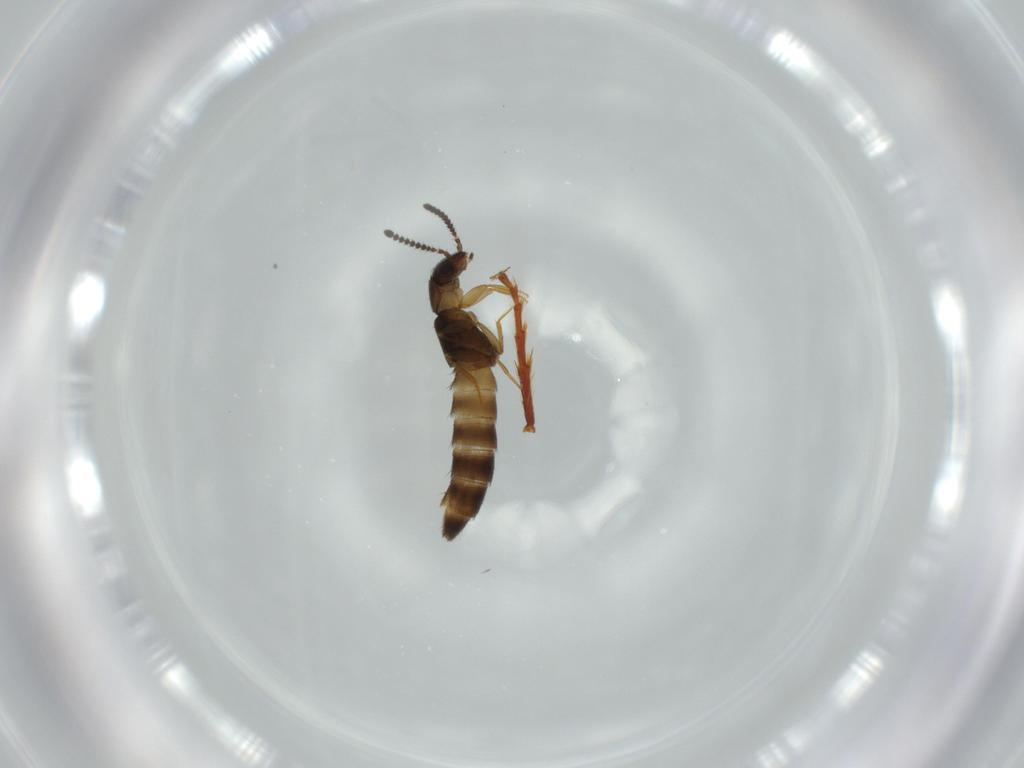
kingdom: Animalia
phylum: Arthropoda
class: Insecta
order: Coleoptera
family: Staphylinidae
